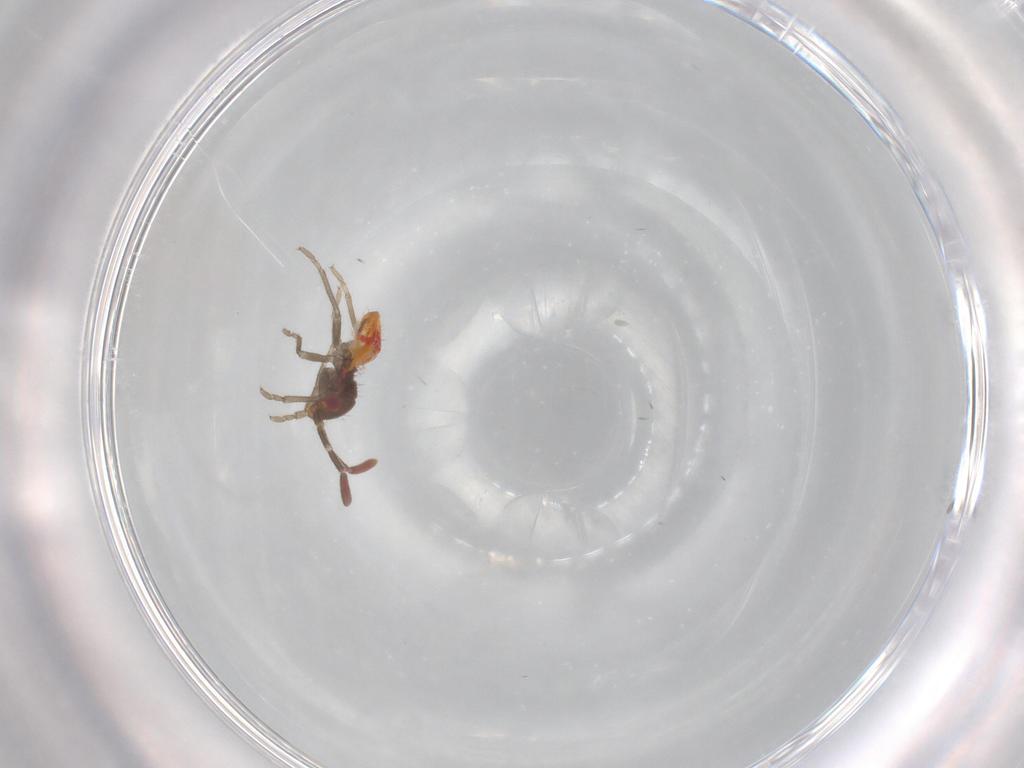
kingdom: Animalia
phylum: Arthropoda
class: Insecta
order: Hemiptera
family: Rhyparochromidae
